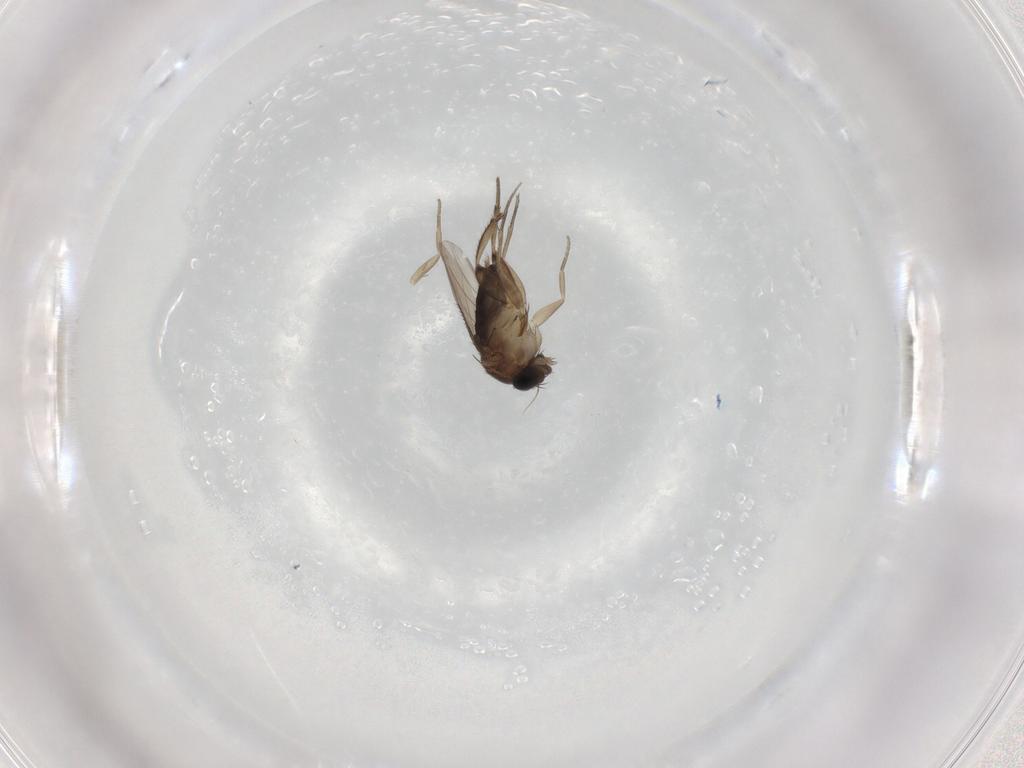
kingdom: Animalia
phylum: Arthropoda
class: Insecta
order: Diptera
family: Phoridae
